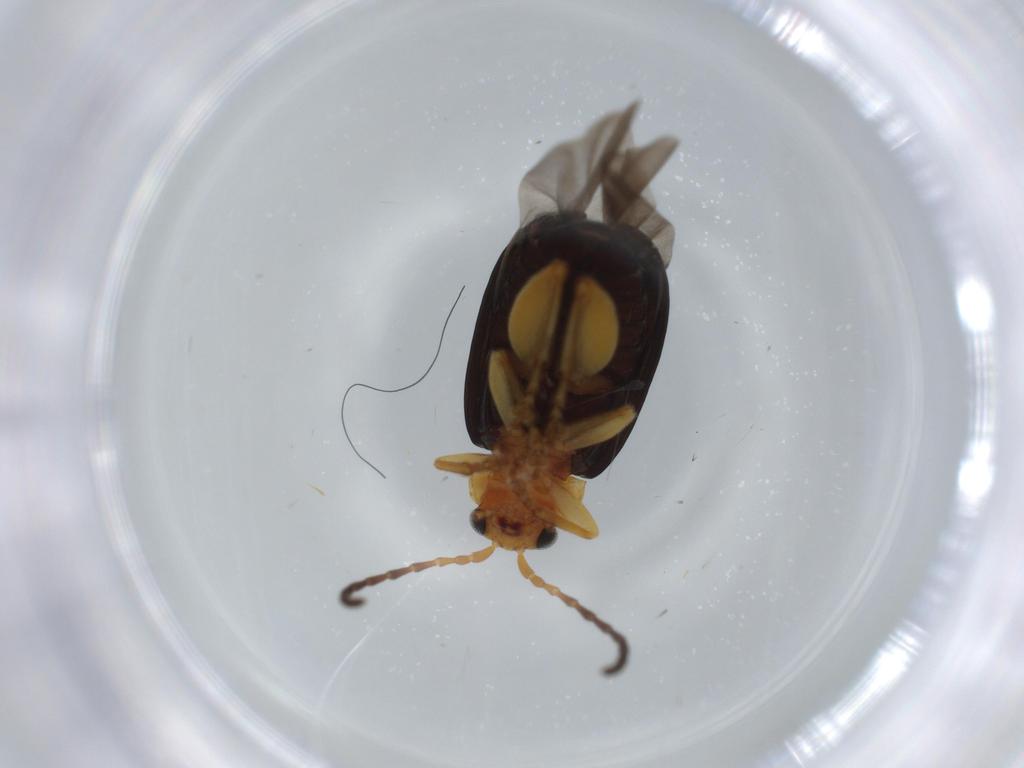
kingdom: Animalia
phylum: Arthropoda
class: Insecta
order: Coleoptera
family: Chrysomelidae
